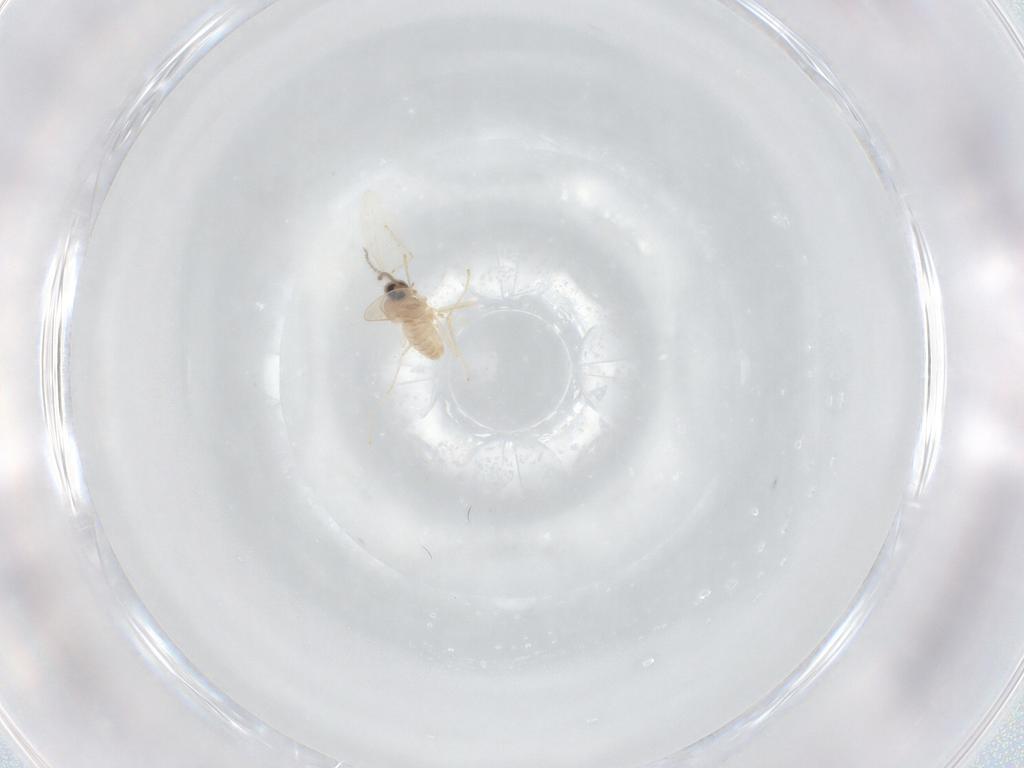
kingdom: Animalia
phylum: Arthropoda
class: Insecta
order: Diptera
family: Cecidomyiidae
